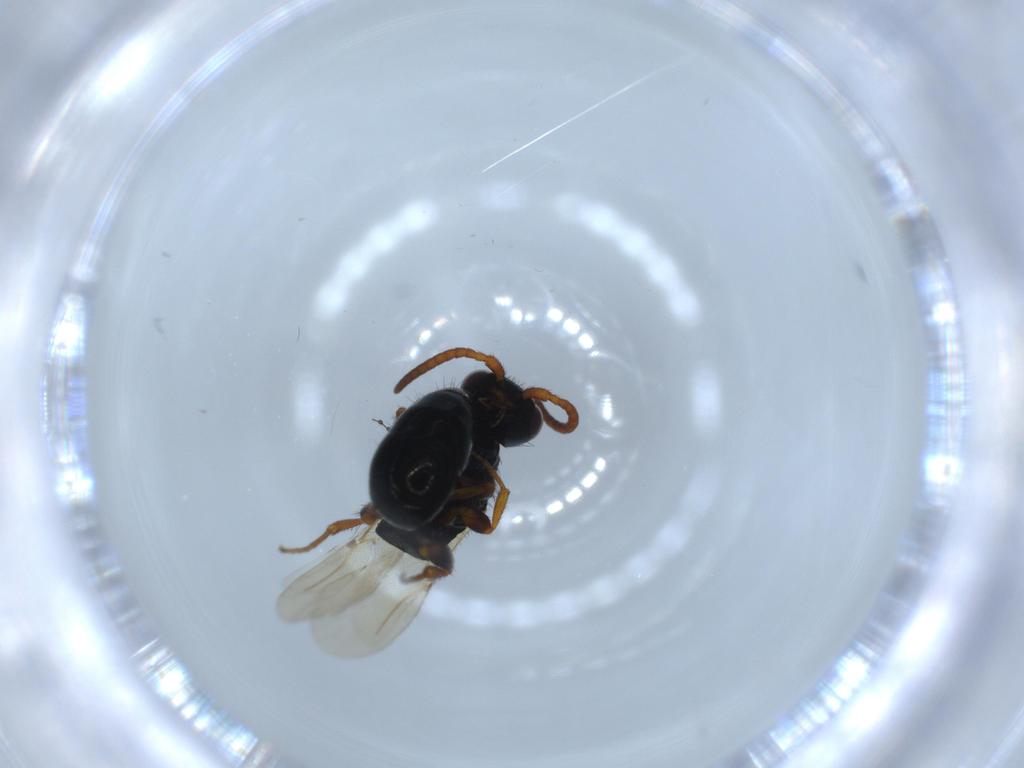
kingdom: Animalia
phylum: Arthropoda
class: Insecta
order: Hymenoptera
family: Bethylidae
